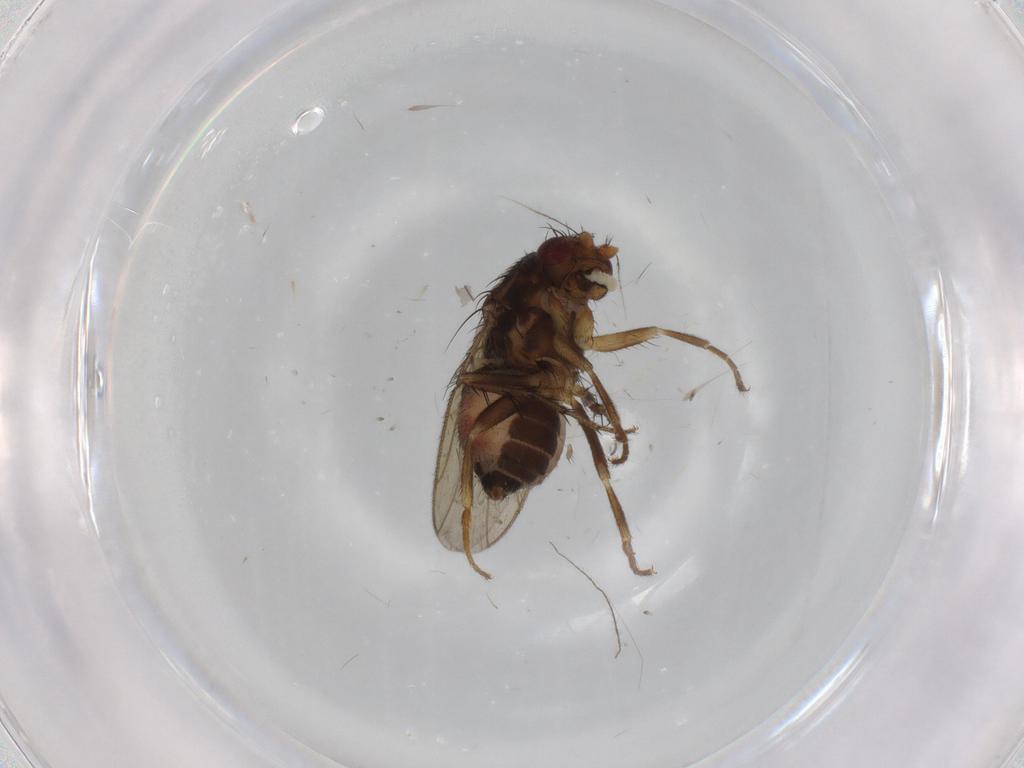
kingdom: Animalia
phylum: Arthropoda
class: Insecta
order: Diptera
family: Sphaeroceridae
